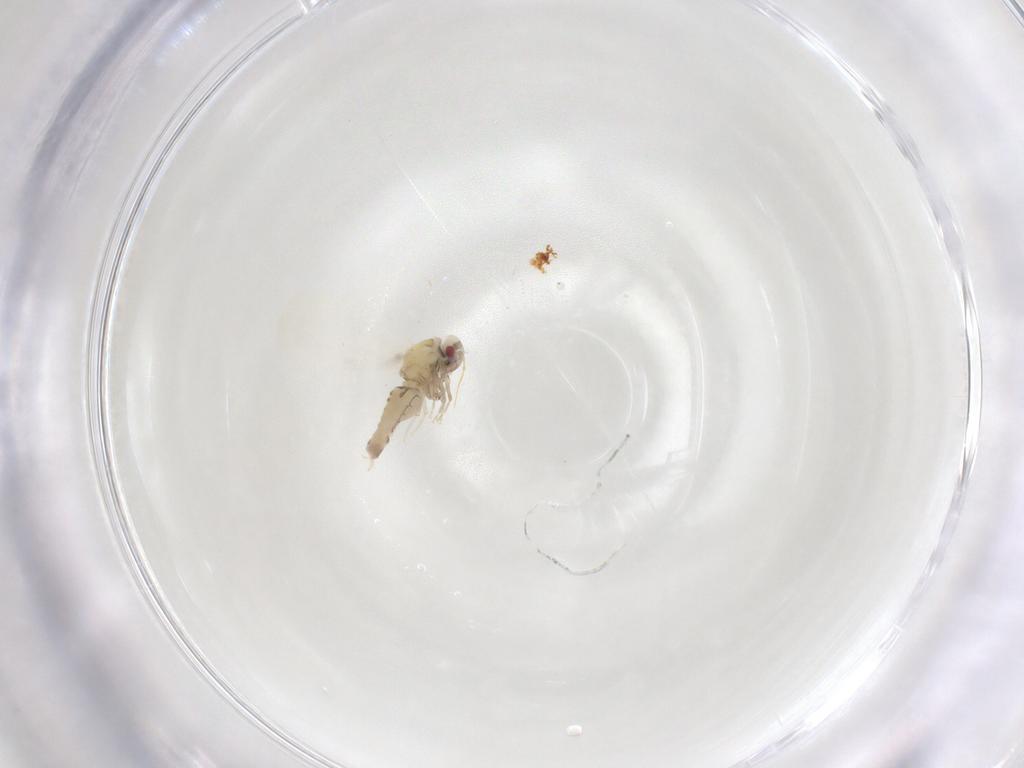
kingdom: Animalia
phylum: Arthropoda
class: Insecta
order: Hemiptera
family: Aleyrodidae
